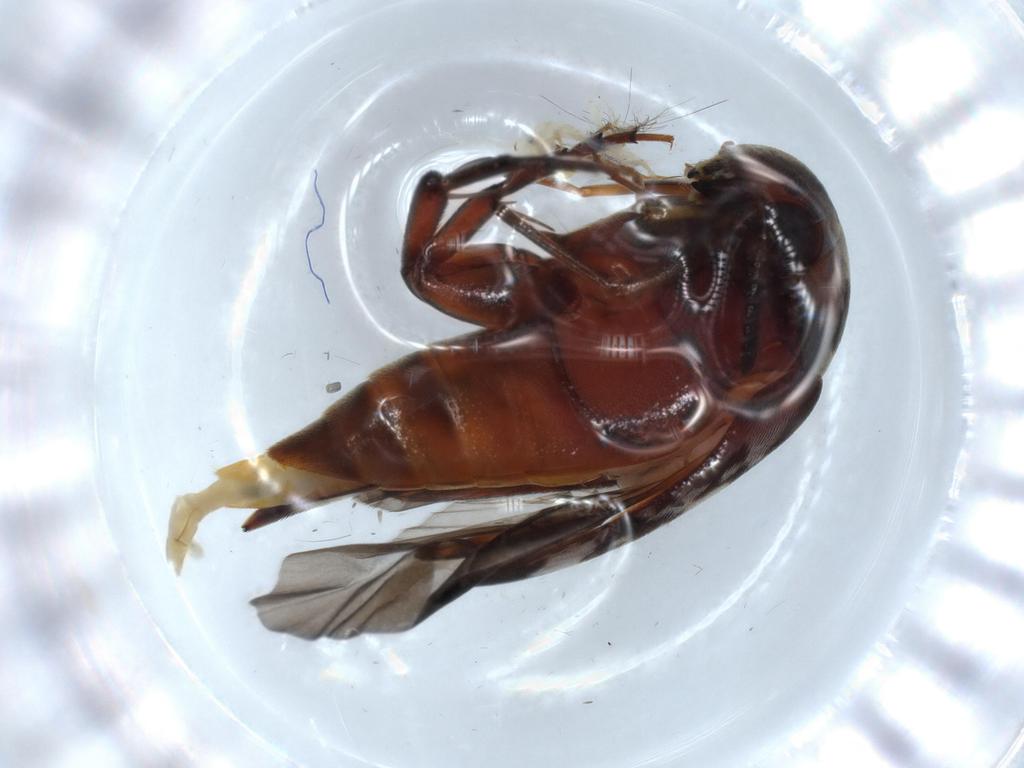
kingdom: Animalia
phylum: Arthropoda
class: Insecta
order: Coleoptera
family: Mordellidae
